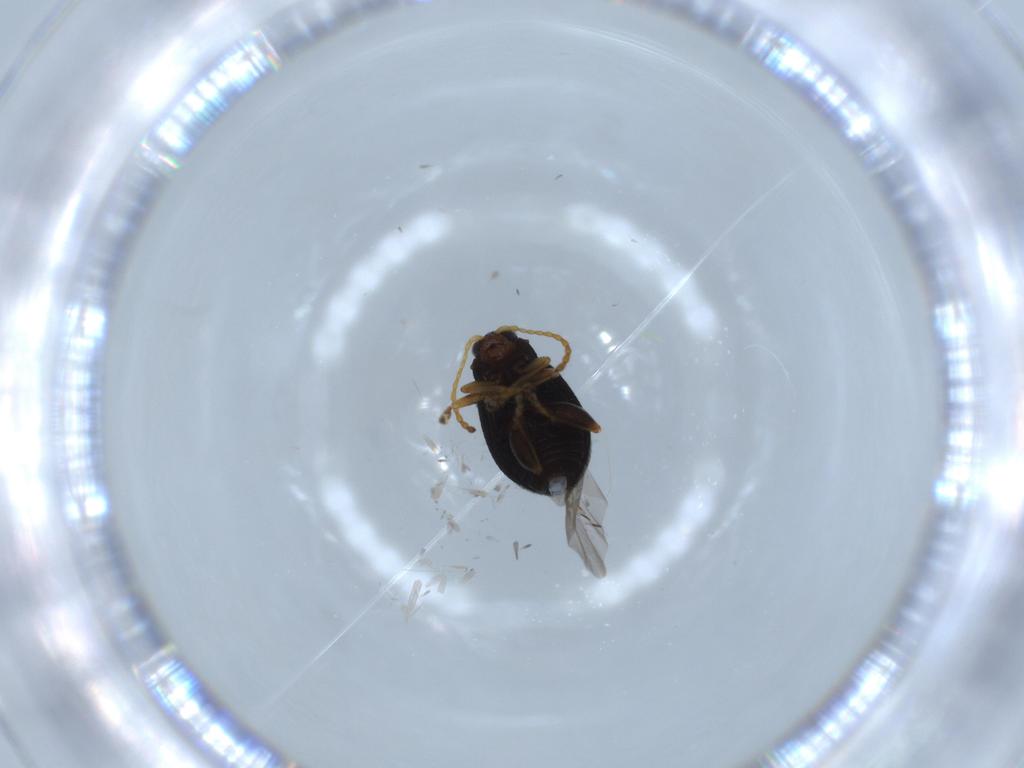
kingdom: Animalia
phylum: Arthropoda
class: Insecta
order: Coleoptera
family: Chrysomelidae
